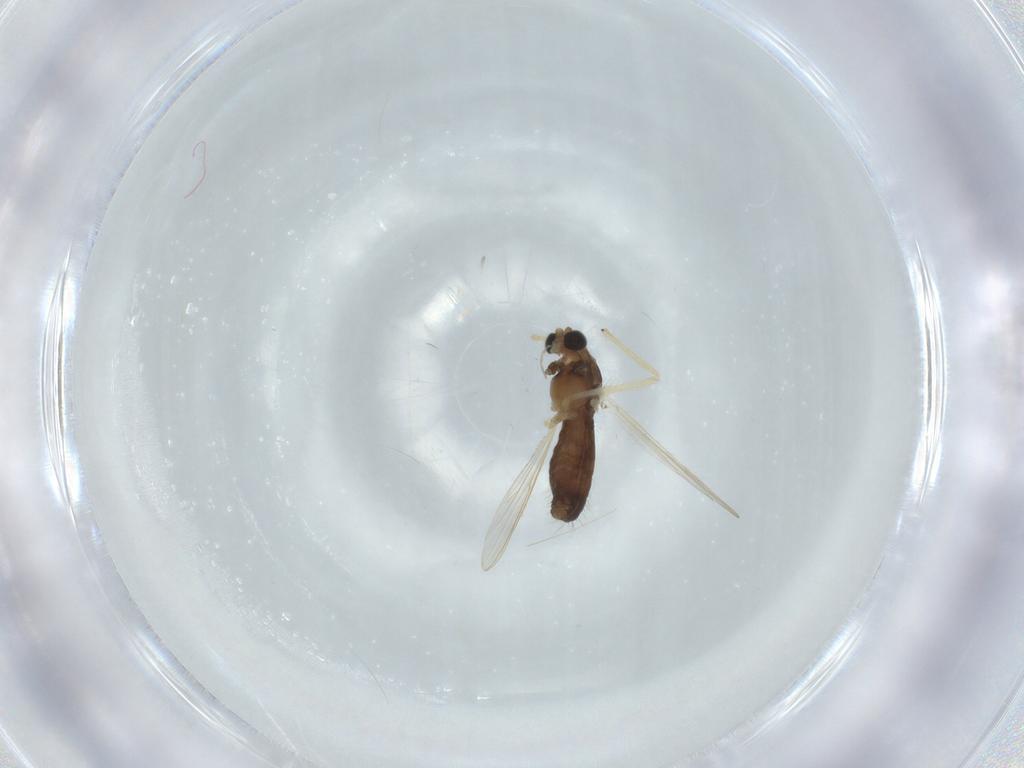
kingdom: Animalia
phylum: Arthropoda
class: Insecta
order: Diptera
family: Chironomidae
